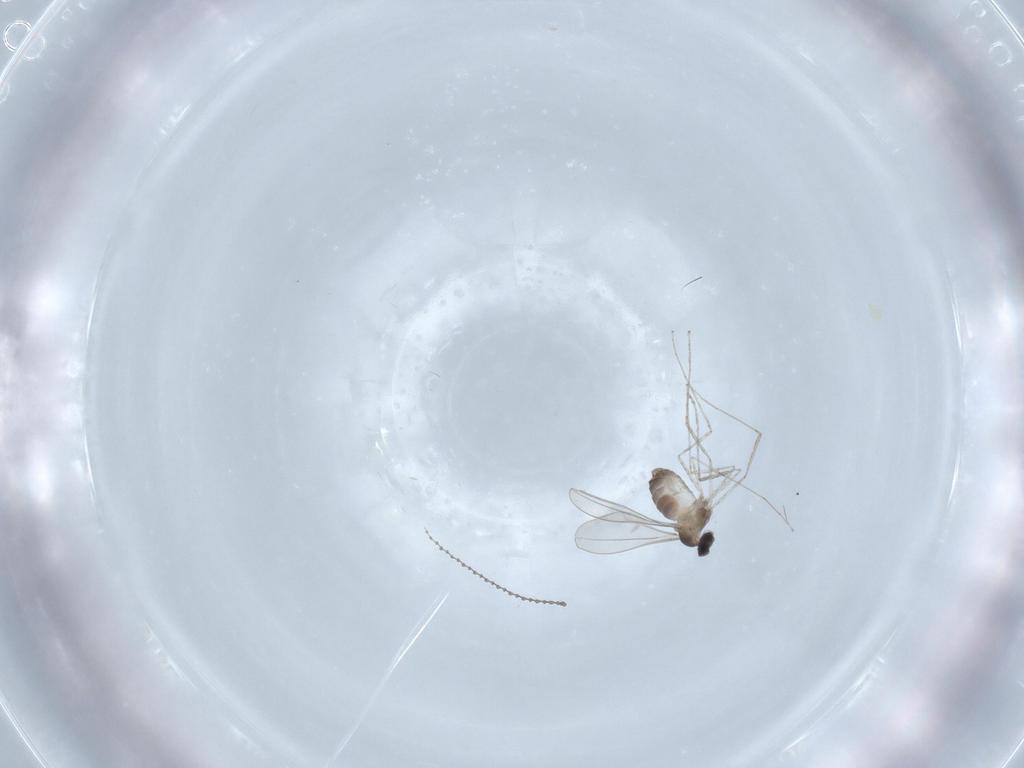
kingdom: Animalia
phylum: Arthropoda
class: Insecta
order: Diptera
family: Cecidomyiidae
